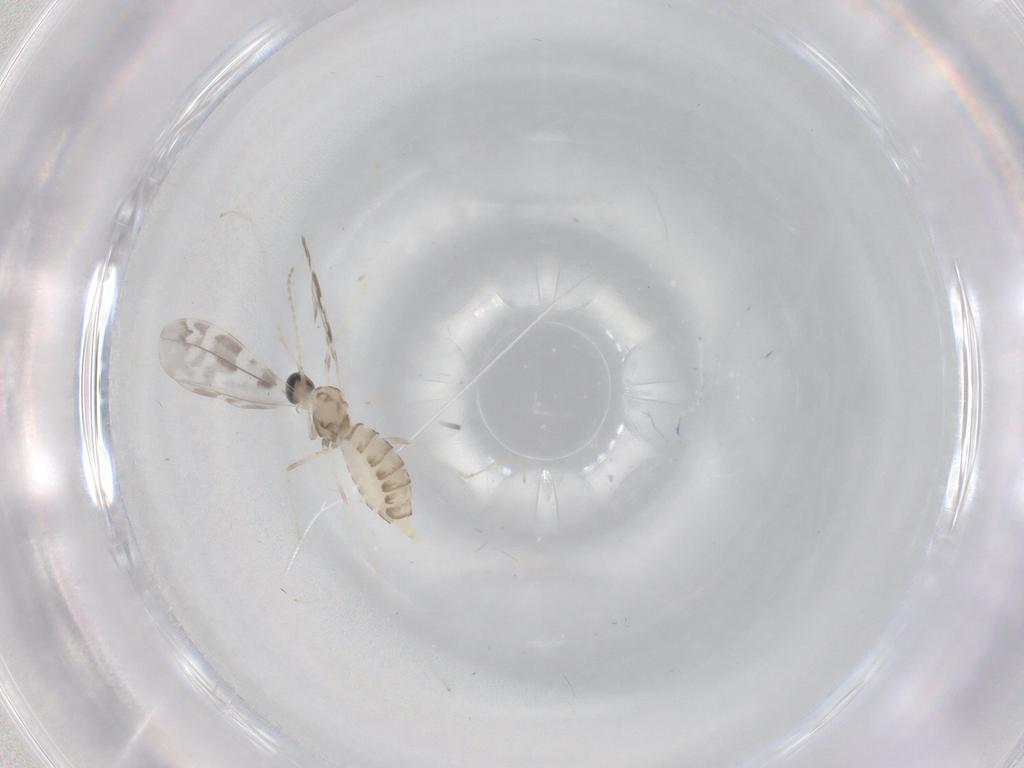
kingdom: Animalia
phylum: Arthropoda
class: Insecta
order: Diptera
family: Cecidomyiidae
